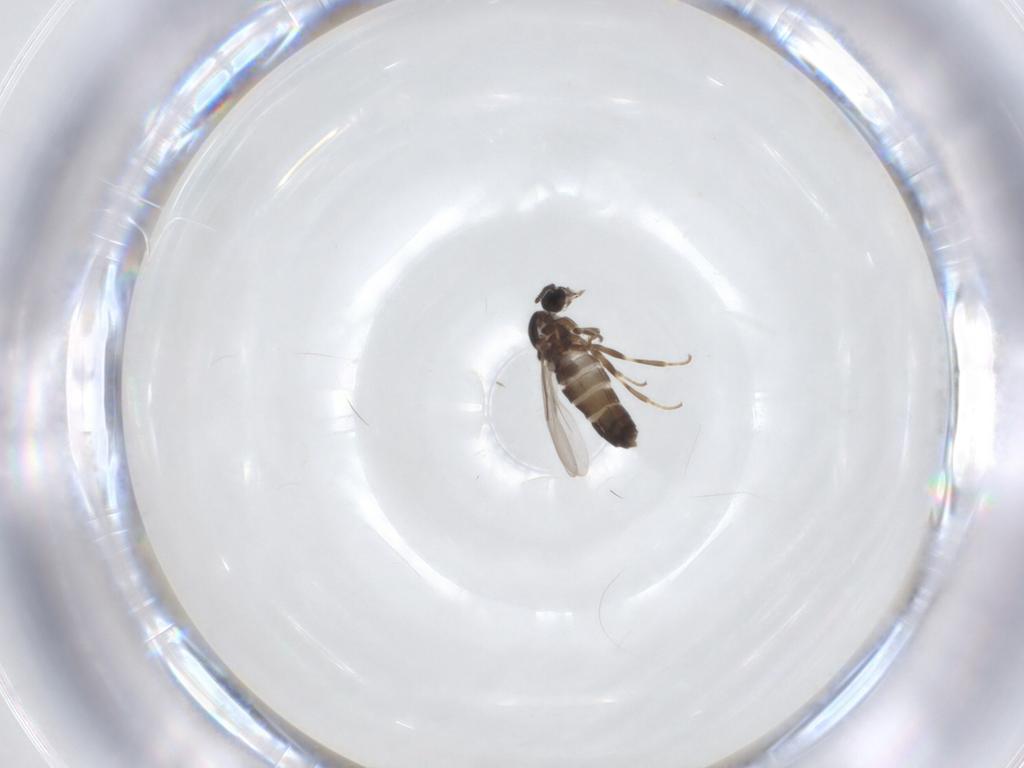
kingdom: Animalia
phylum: Arthropoda
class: Insecta
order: Diptera
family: Scatopsidae
